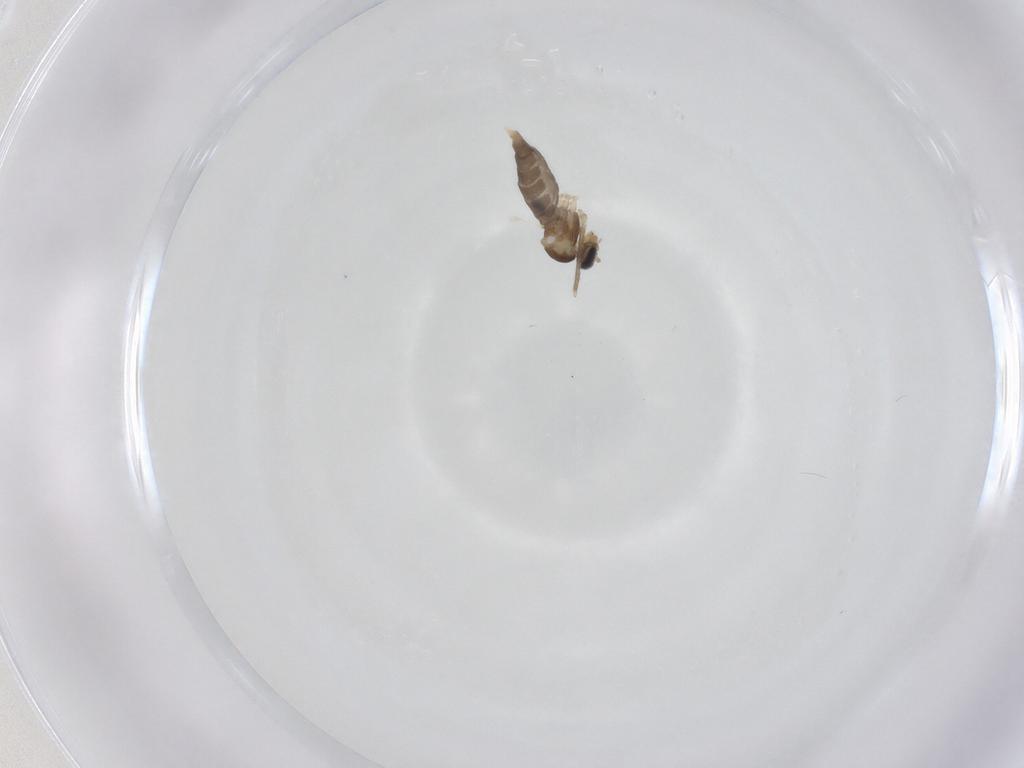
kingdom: Animalia
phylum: Arthropoda
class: Insecta
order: Diptera
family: Cecidomyiidae
